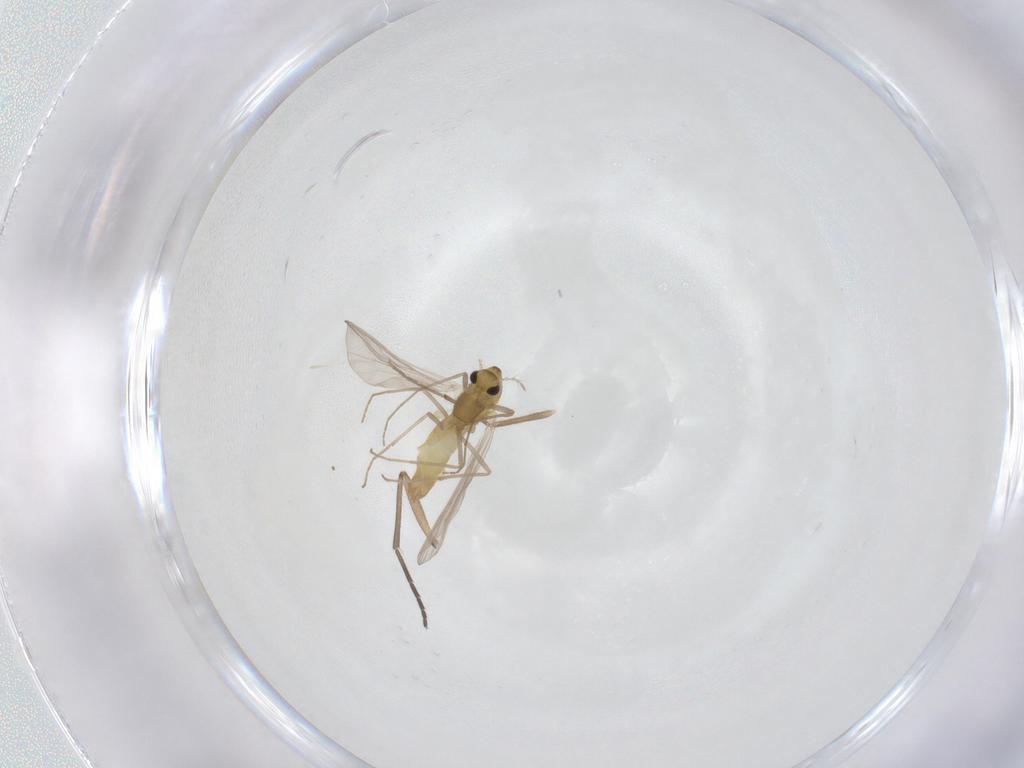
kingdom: Animalia
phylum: Arthropoda
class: Insecta
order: Diptera
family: Chironomidae
